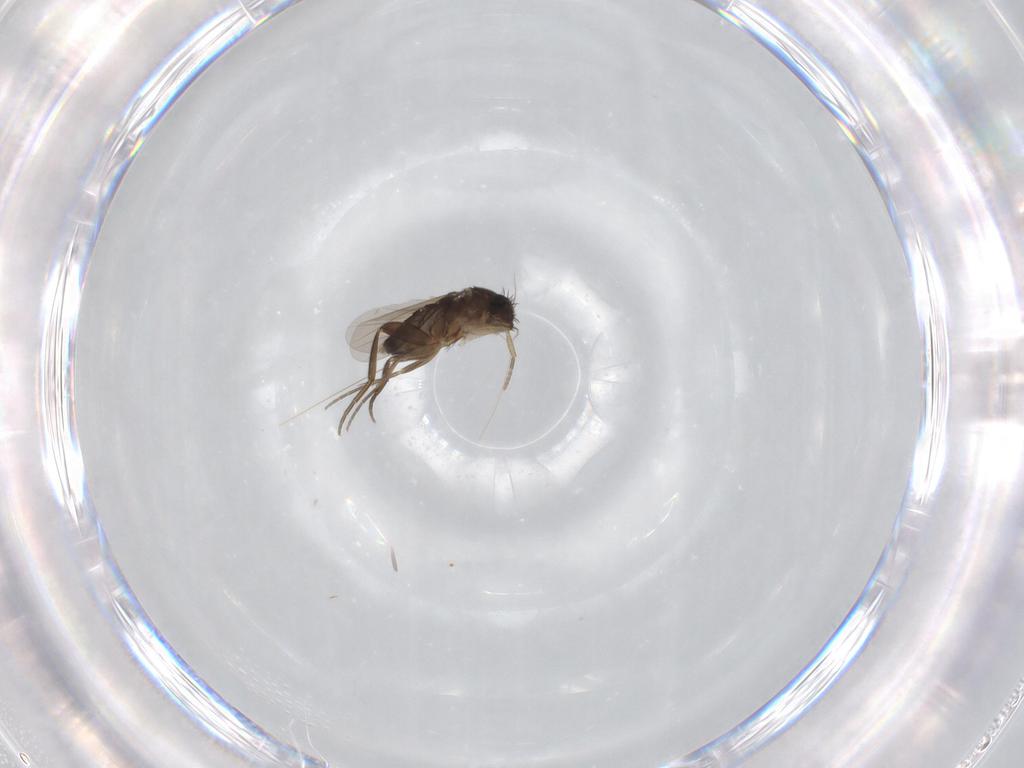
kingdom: Animalia
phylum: Arthropoda
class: Insecta
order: Diptera
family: Phoridae
